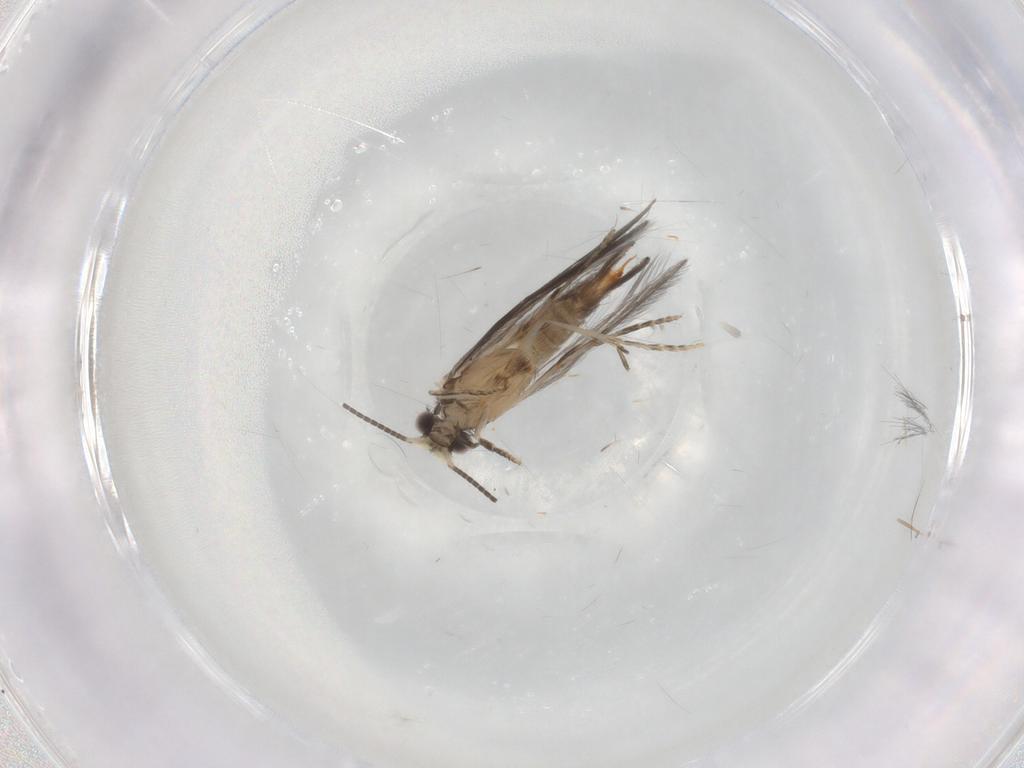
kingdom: Animalia
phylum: Arthropoda
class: Insecta
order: Trichoptera
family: Hydroptilidae
